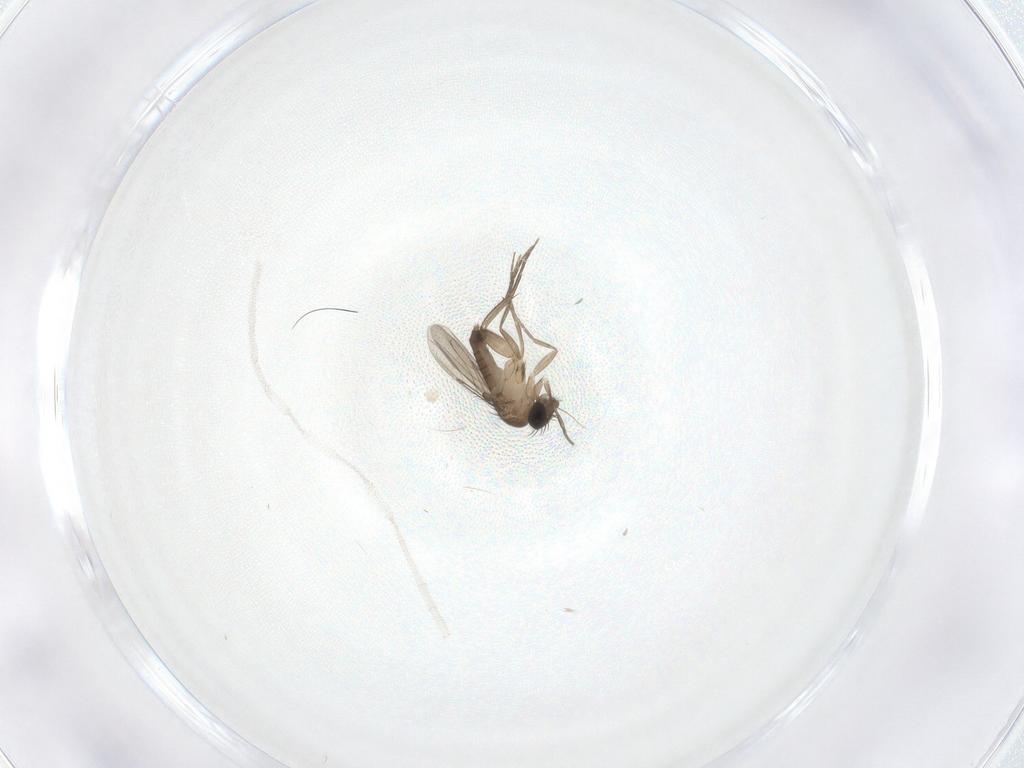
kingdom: Animalia
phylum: Arthropoda
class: Insecta
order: Diptera
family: Phoridae
